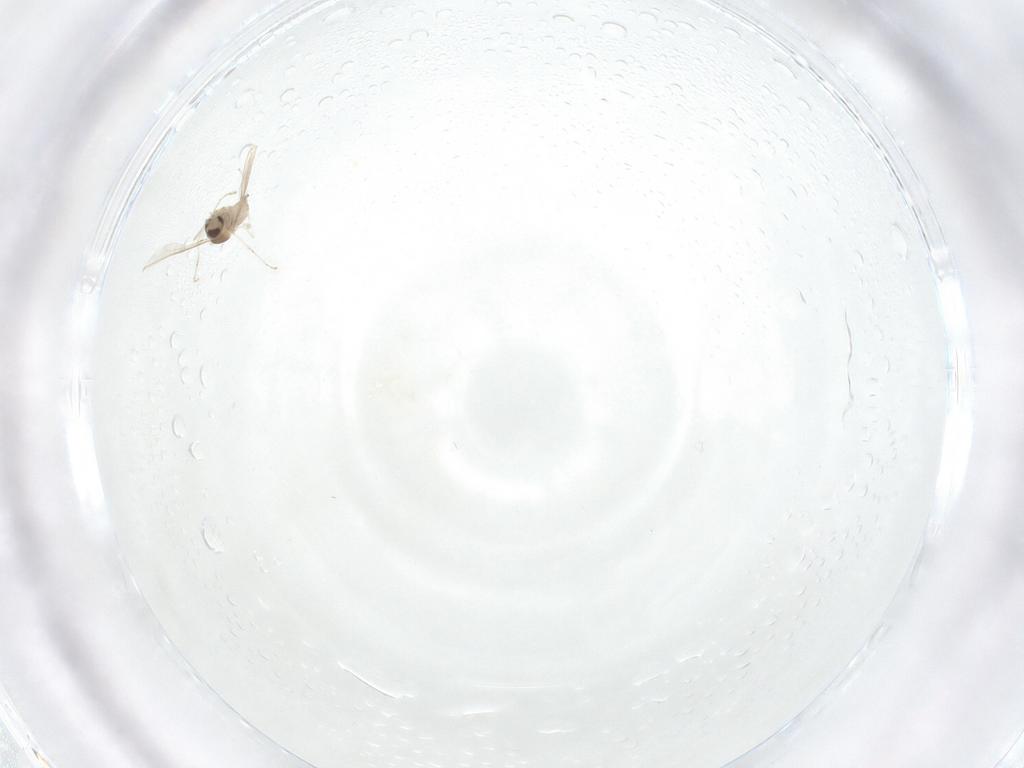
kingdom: Animalia
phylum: Arthropoda
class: Insecta
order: Diptera
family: Cecidomyiidae
